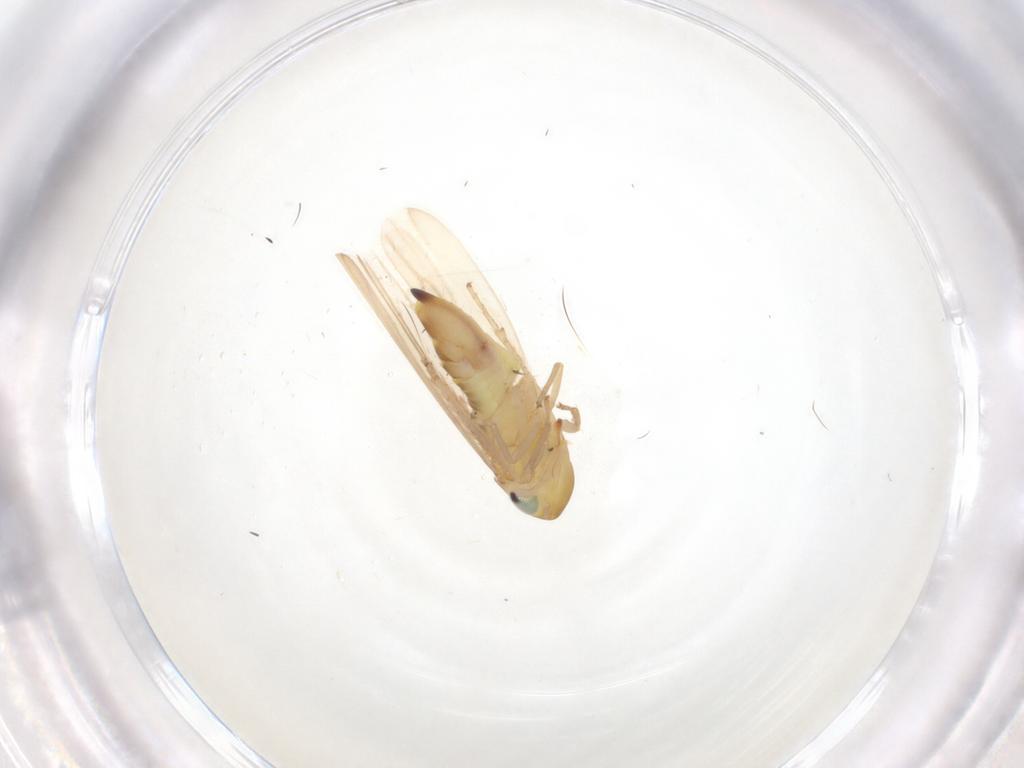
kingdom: Animalia
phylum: Arthropoda
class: Insecta
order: Hemiptera
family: Cicadellidae
